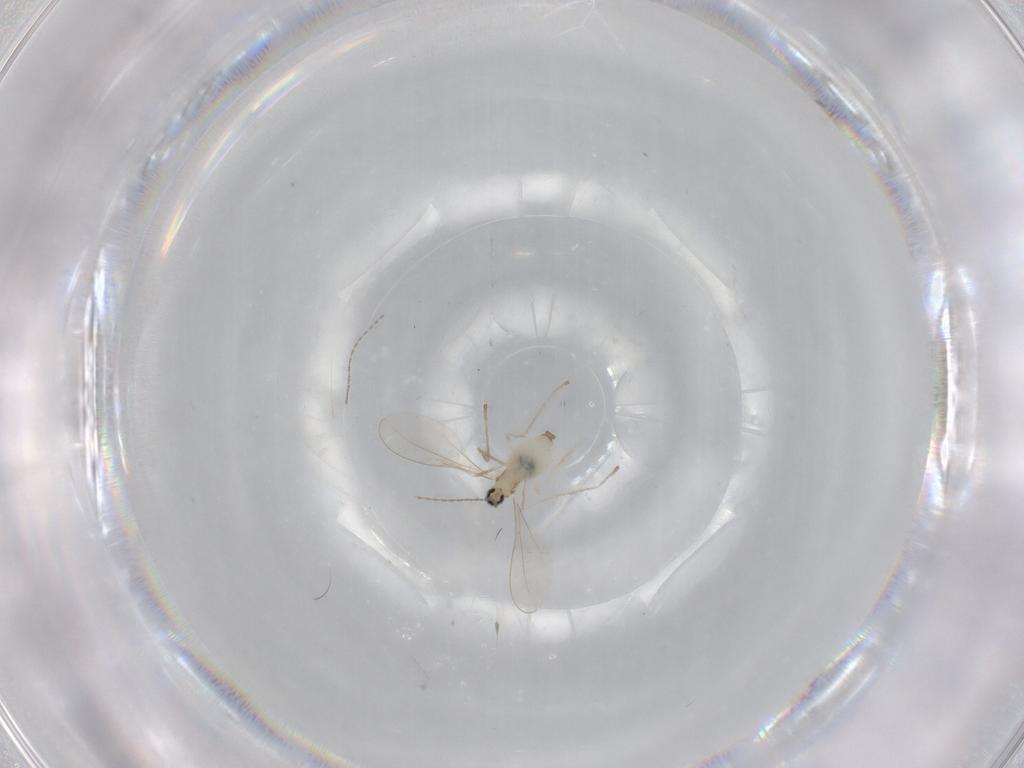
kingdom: Animalia
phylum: Arthropoda
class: Insecta
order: Diptera
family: Cecidomyiidae
